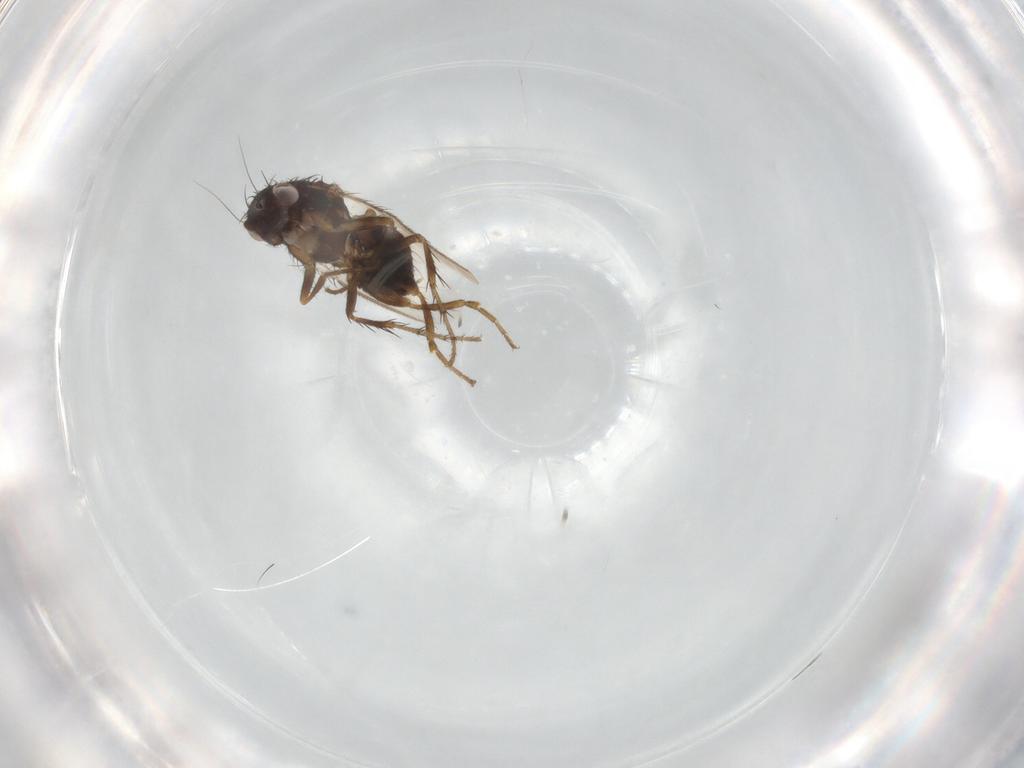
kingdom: Animalia
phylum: Arthropoda
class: Insecta
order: Diptera
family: Sphaeroceridae
